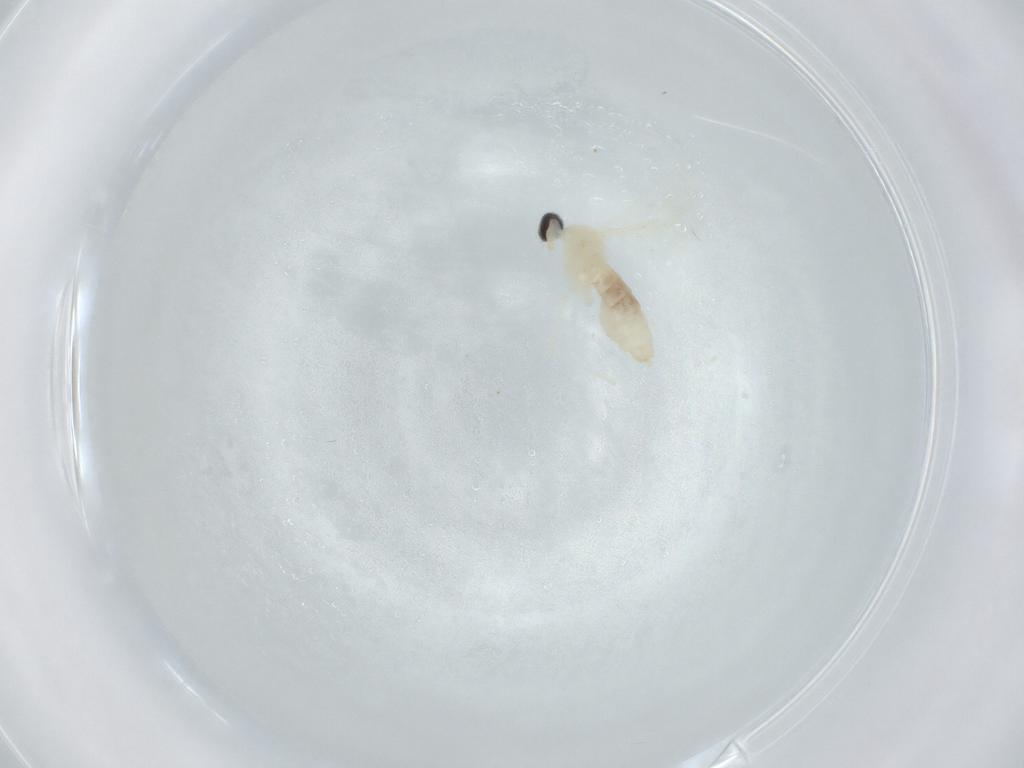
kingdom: Animalia
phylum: Arthropoda
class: Insecta
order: Diptera
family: Cecidomyiidae
